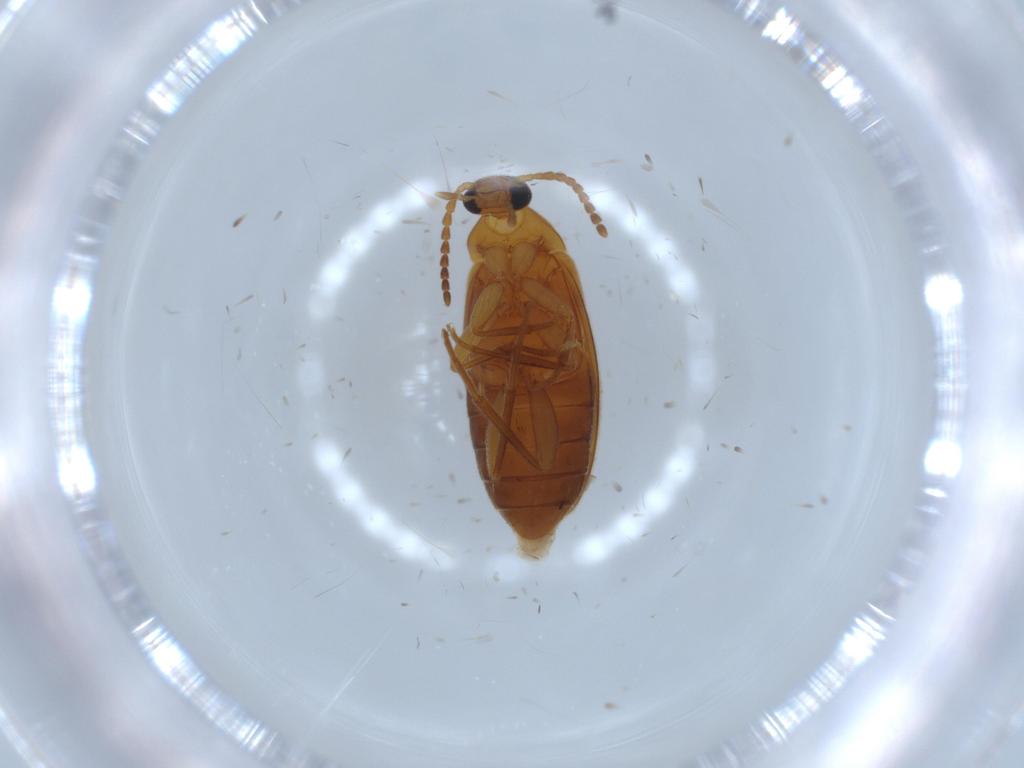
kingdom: Animalia
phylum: Arthropoda
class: Insecta
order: Coleoptera
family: Scraptiidae
